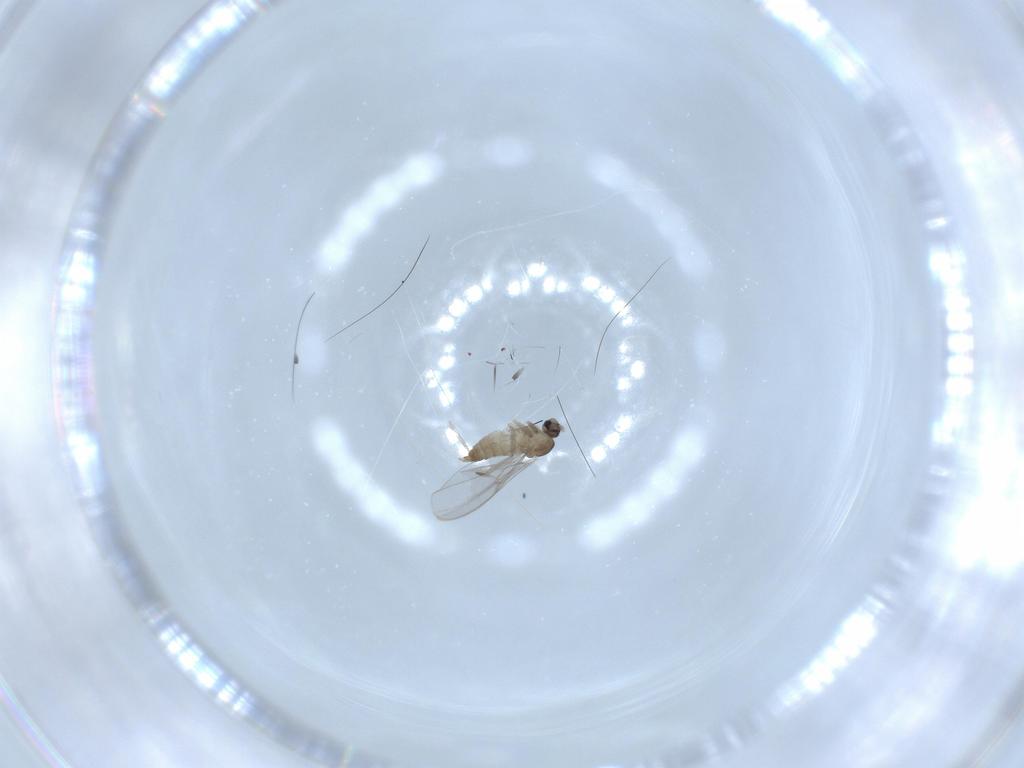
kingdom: Animalia
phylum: Arthropoda
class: Insecta
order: Diptera
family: Cecidomyiidae
